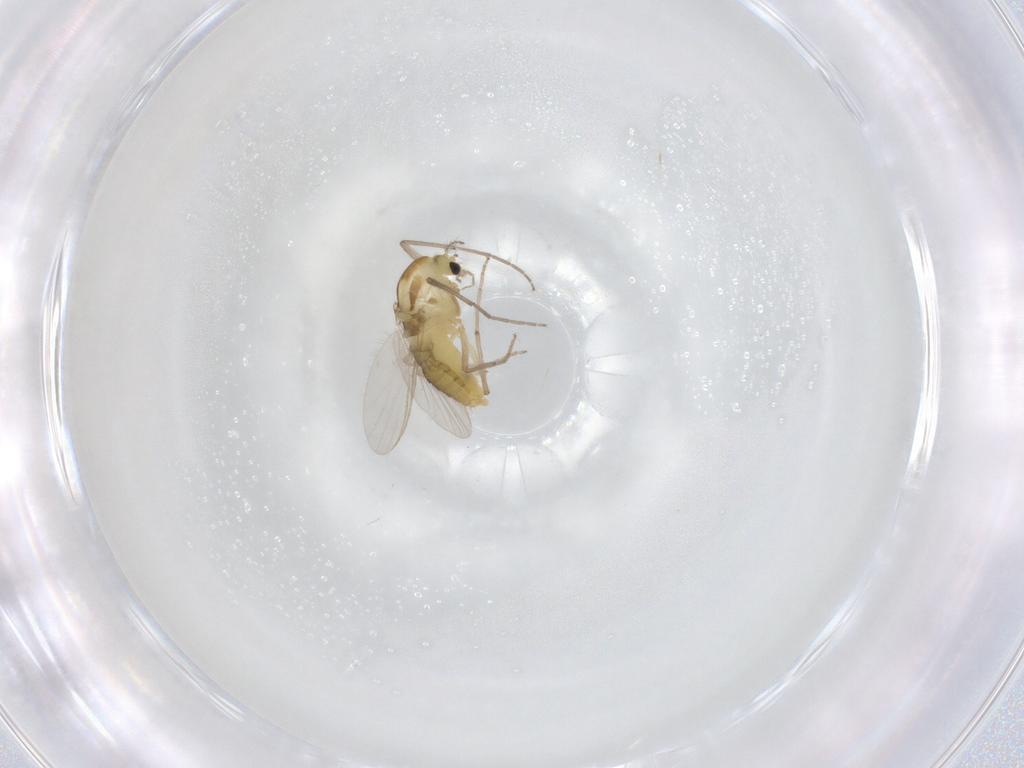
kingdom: Animalia
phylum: Arthropoda
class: Insecta
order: Diptera
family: Chironomidae
